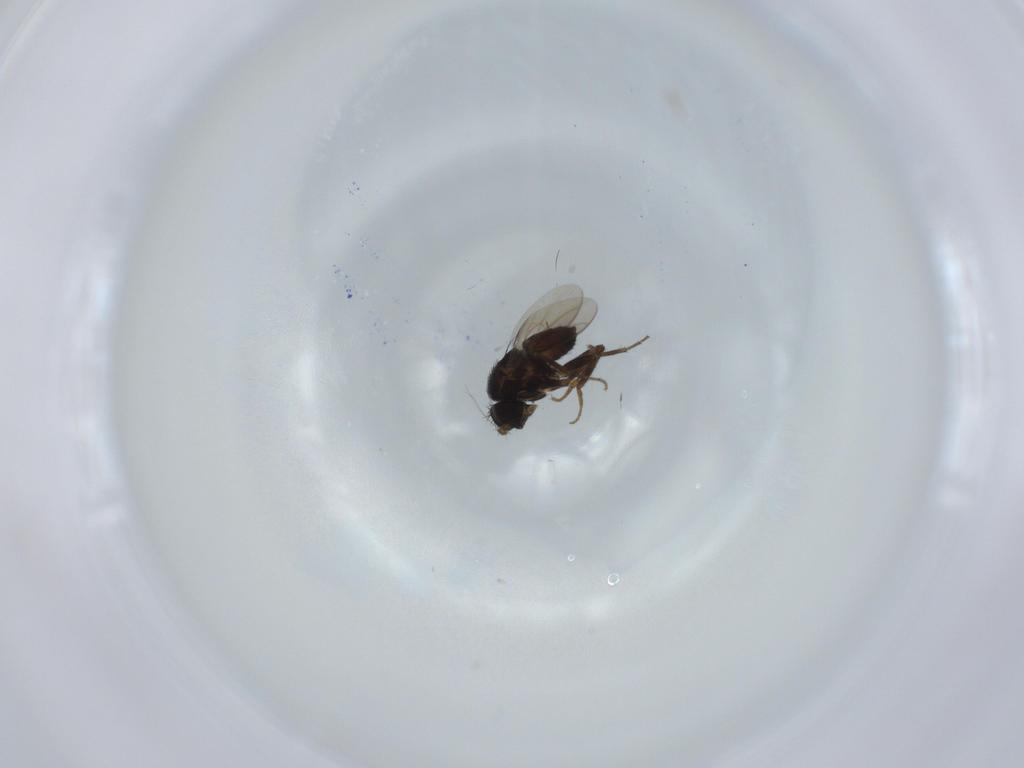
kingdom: Animalia
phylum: Arthropoda
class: Insecta
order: Diptera
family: Sphaeroceridae
